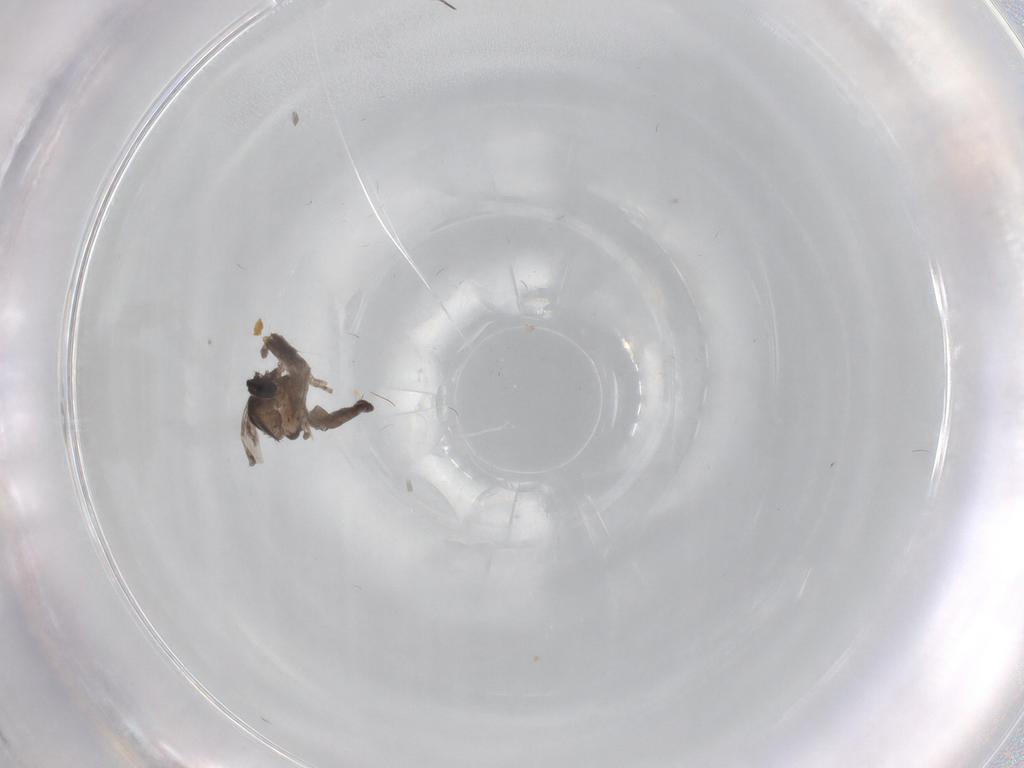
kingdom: Animalia
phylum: Arthropoda
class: Insecta
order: Diptera
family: Ceratopogonidae
